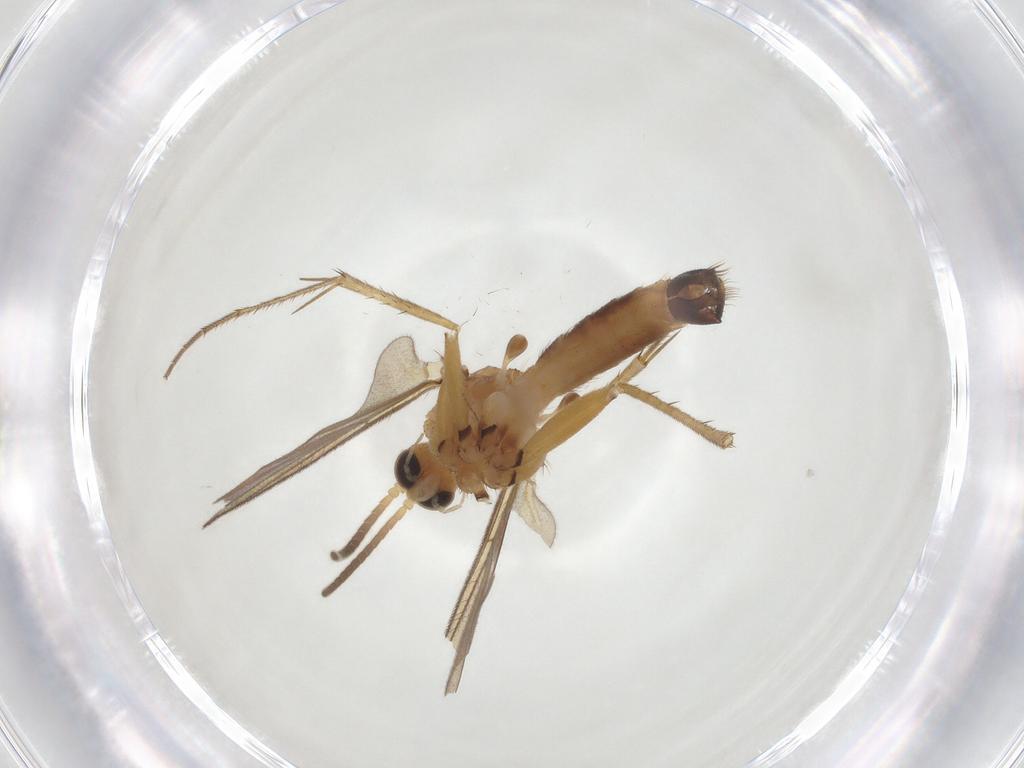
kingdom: Animalia
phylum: Arthropoda
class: Insecta
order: Diptera
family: Mycetophilidae
